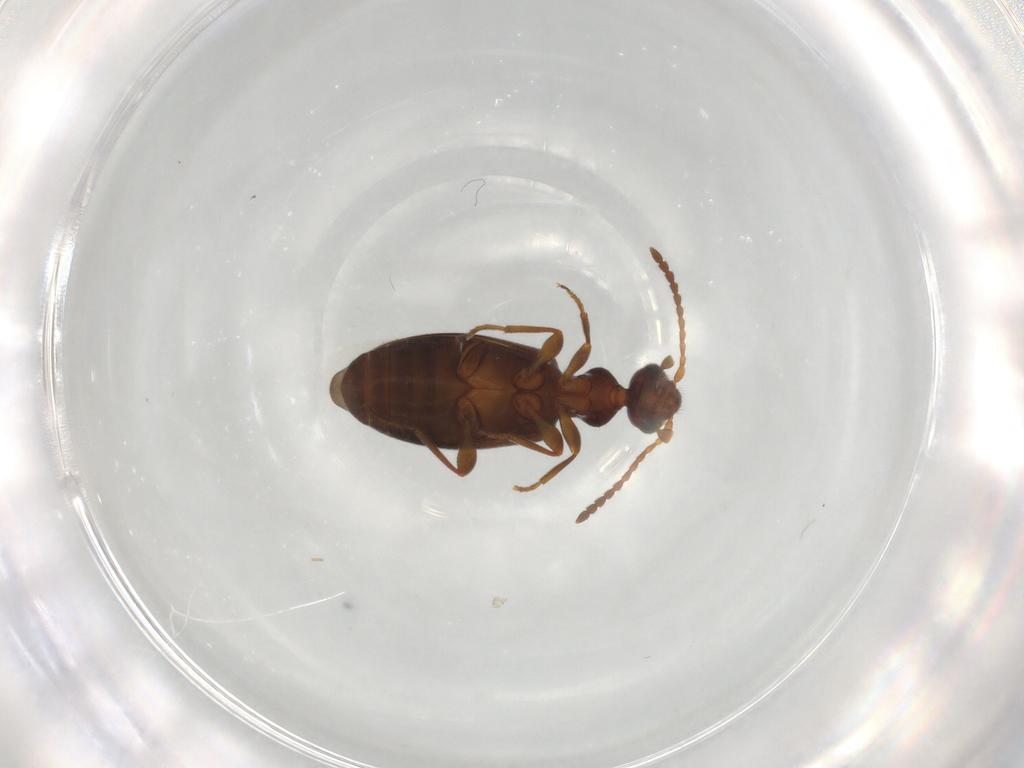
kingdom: Animalia
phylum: Arthropoda
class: Insecta
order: Coleoptera
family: Anthicidae
